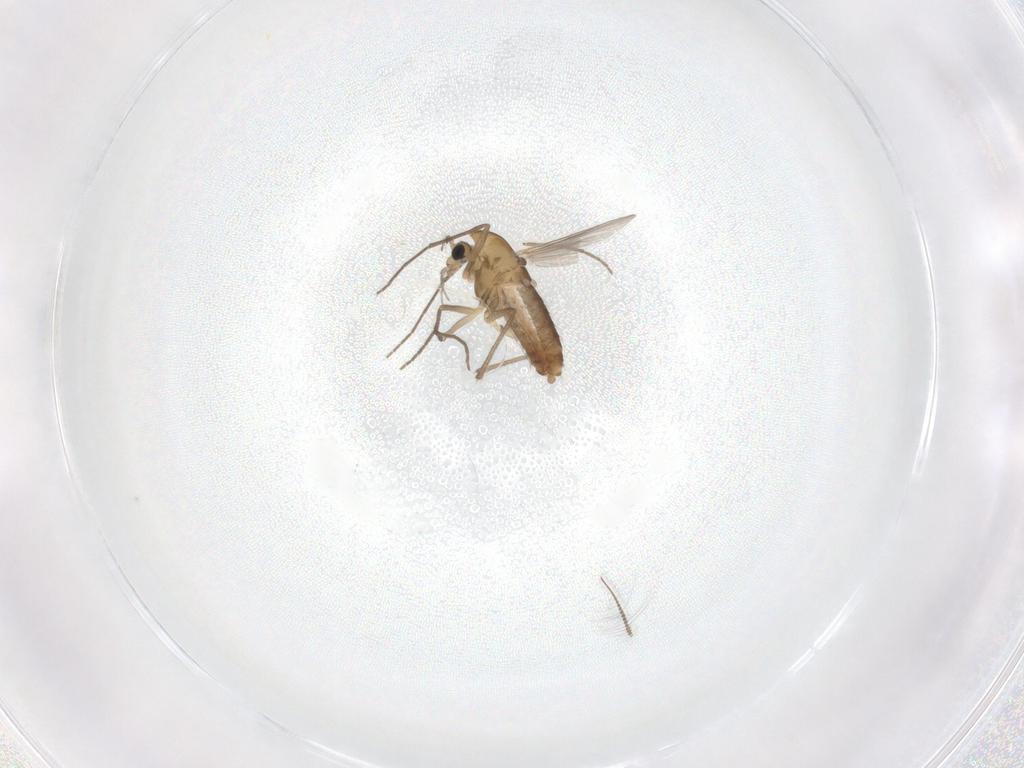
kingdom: Animalia
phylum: Arthropoda
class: Insecta
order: Diptera
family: Chironomidae
